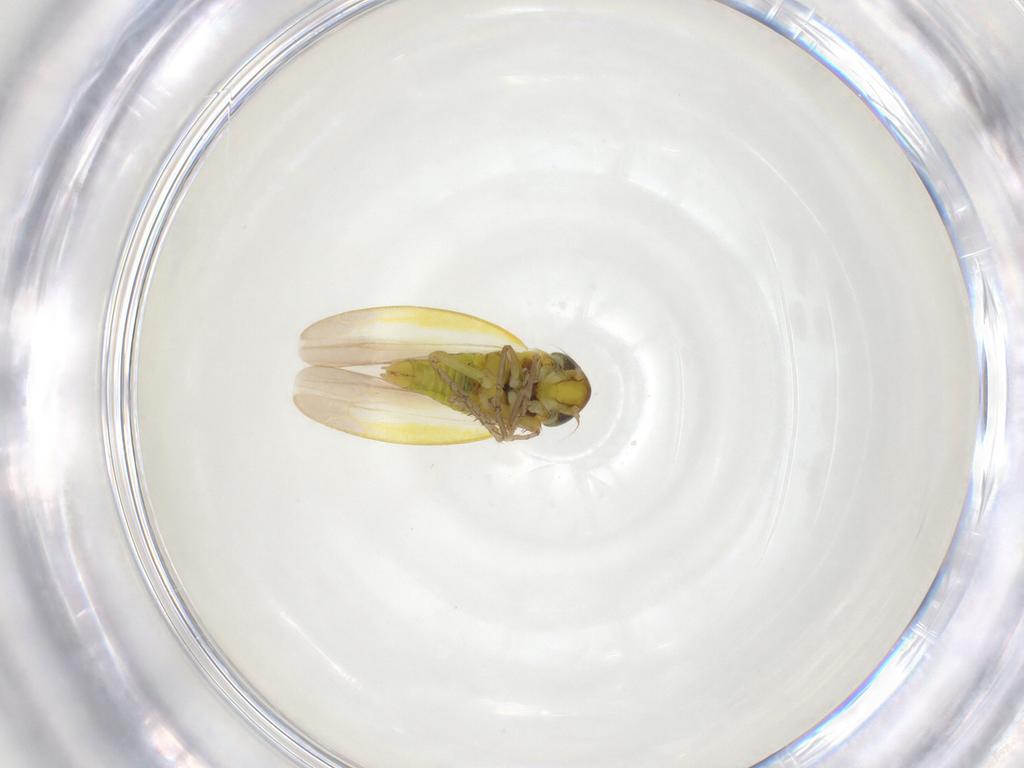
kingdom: Animalia
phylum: Arthropoda
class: Insecta
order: Hemiptera
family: Cicadellidae
